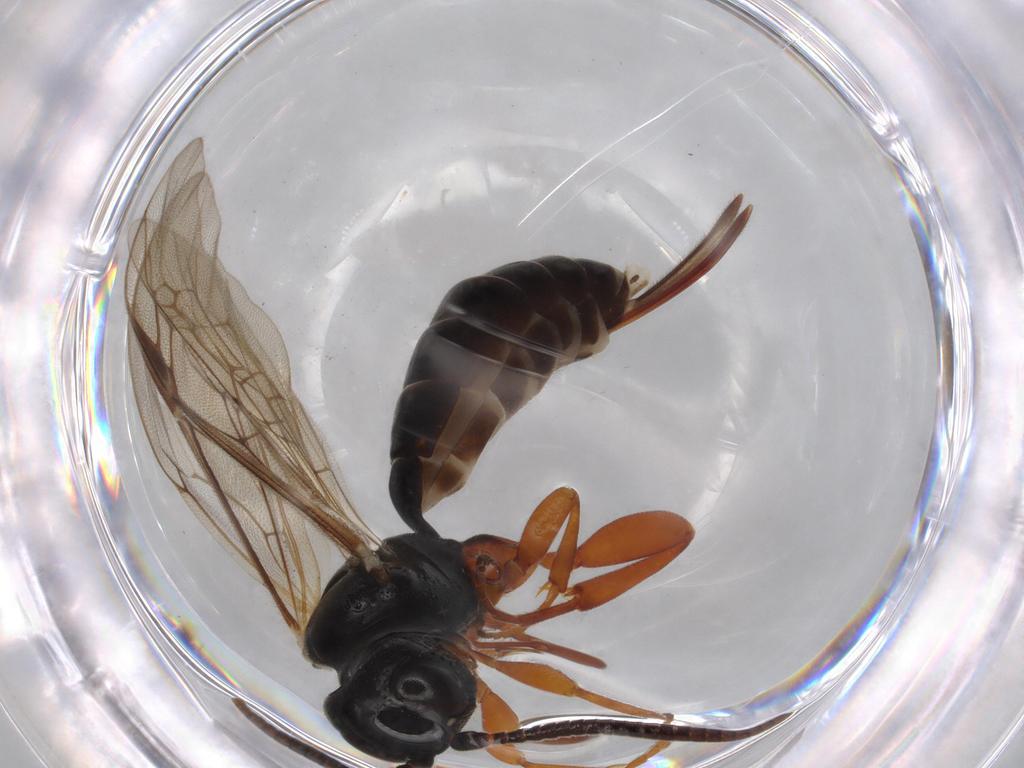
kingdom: Animalia
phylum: Arthropoda
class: Insecta
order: Hymenoptera
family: Ichneumonidae
